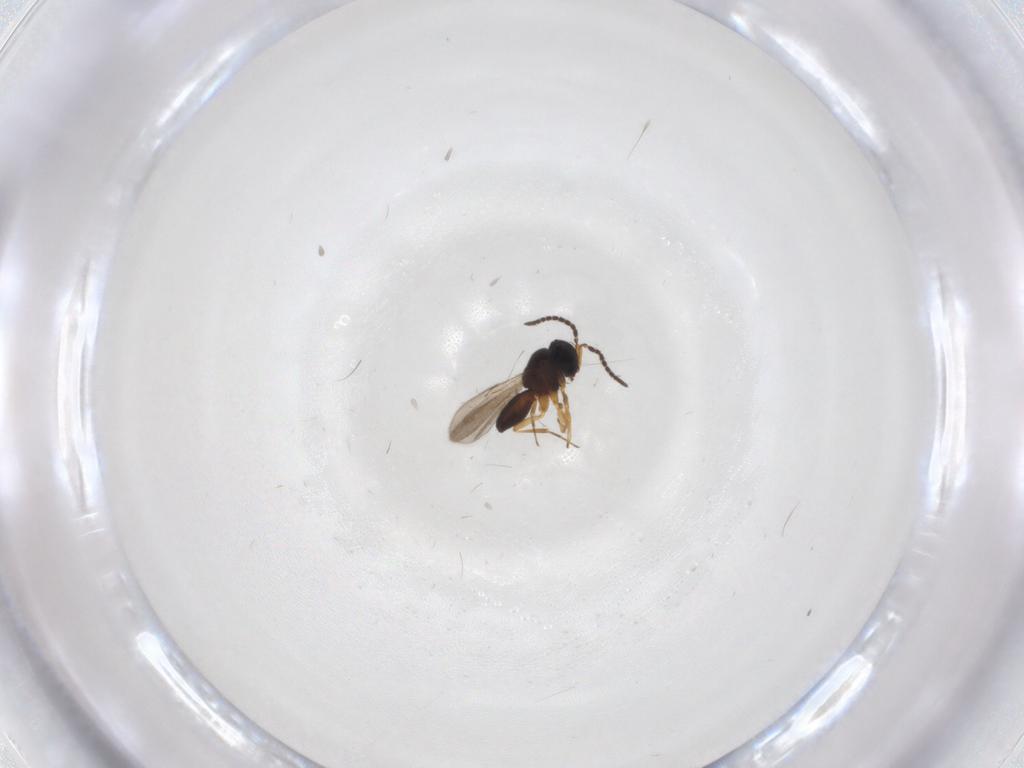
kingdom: Animalia
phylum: Arthropoda
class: Insecta
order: Hymenoptera
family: Scelionidae
